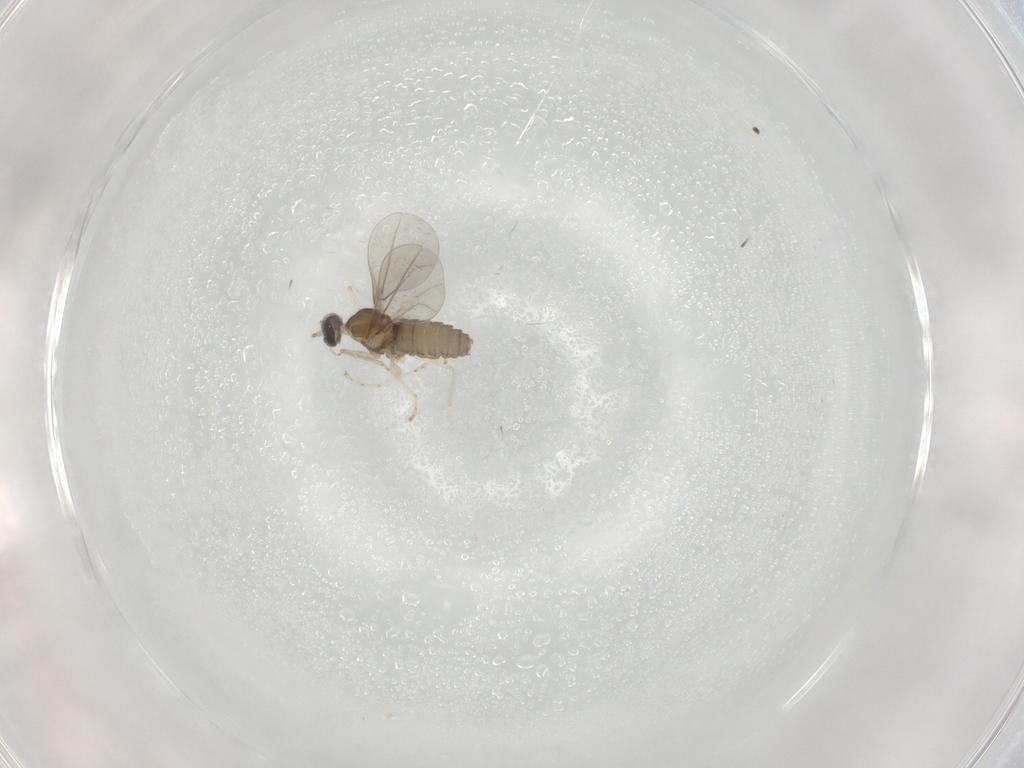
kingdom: Animalia
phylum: Arthropoda
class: Insecta
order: Diptera
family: Cecidomyiidae
